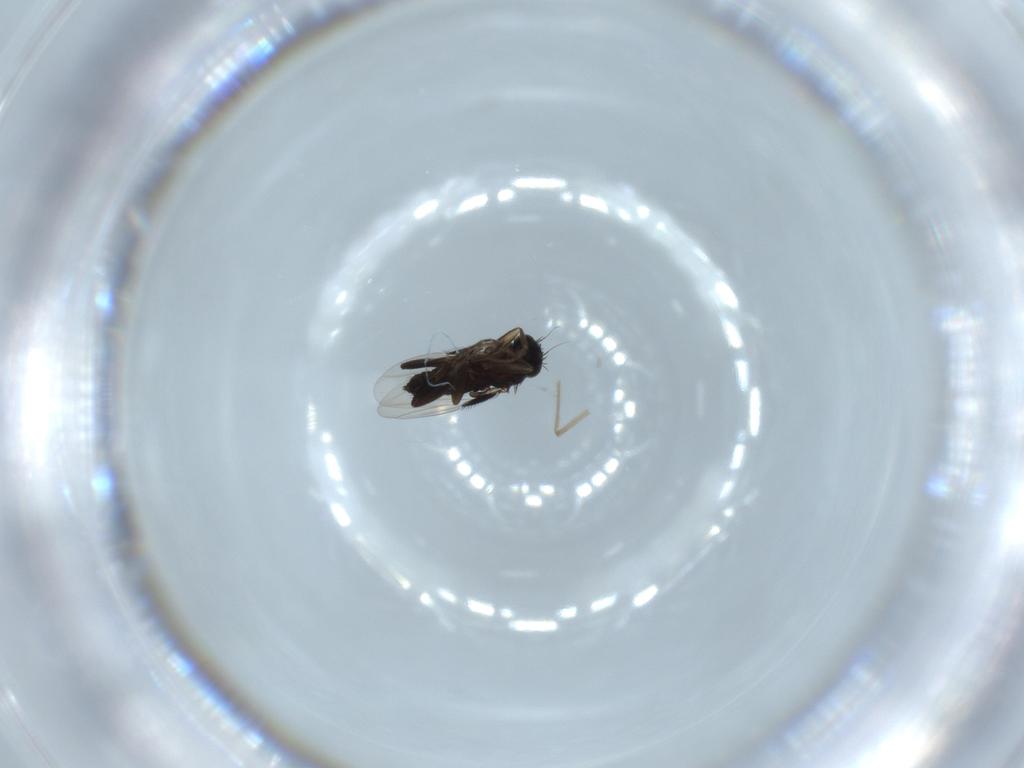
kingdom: Animalia
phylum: Arthropoda
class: Insecta
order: Diptera
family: Phoridae
